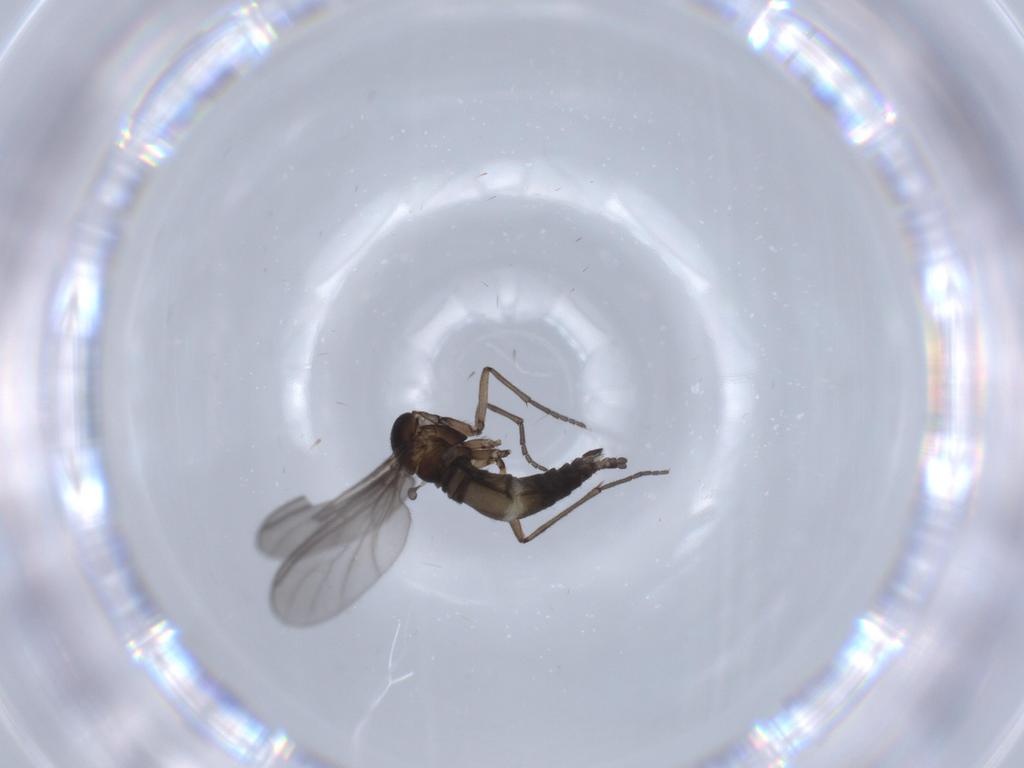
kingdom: Animalia
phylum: Arthropoda
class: Insecta
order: Diptera
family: Sciaridae
